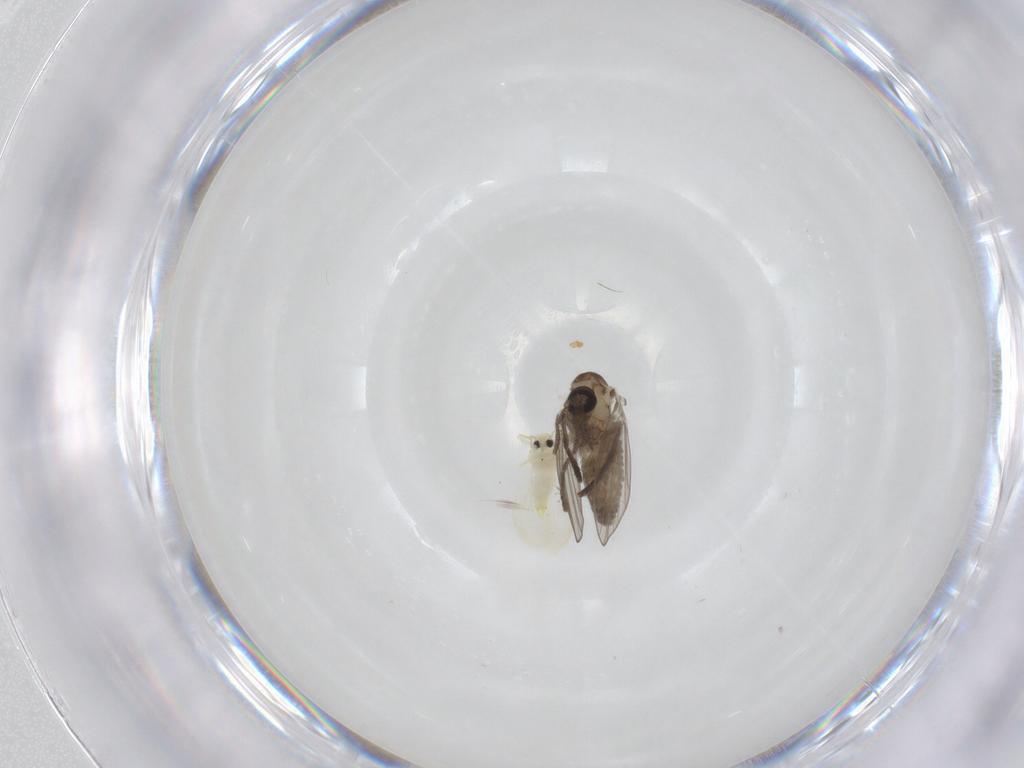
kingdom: Animalia
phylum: Arthropoda
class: Insecta
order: Diptera
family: Psychodidae
